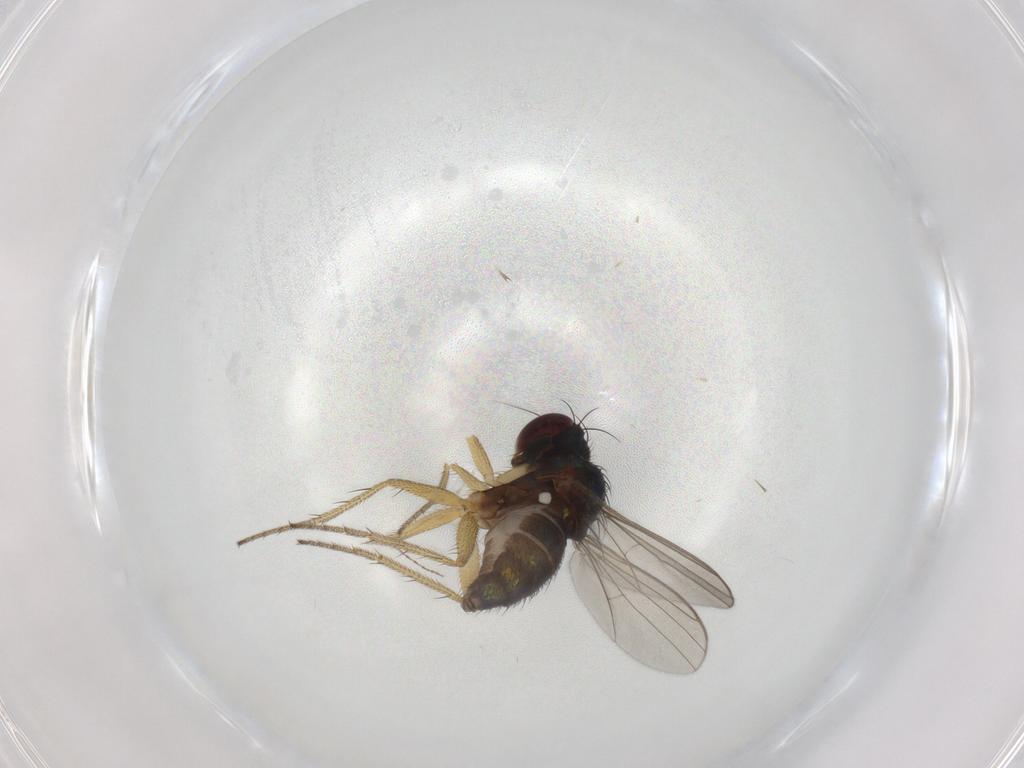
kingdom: Animalia
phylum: Arthropoda
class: Insecta
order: Diptera
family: Dolichopodidae
